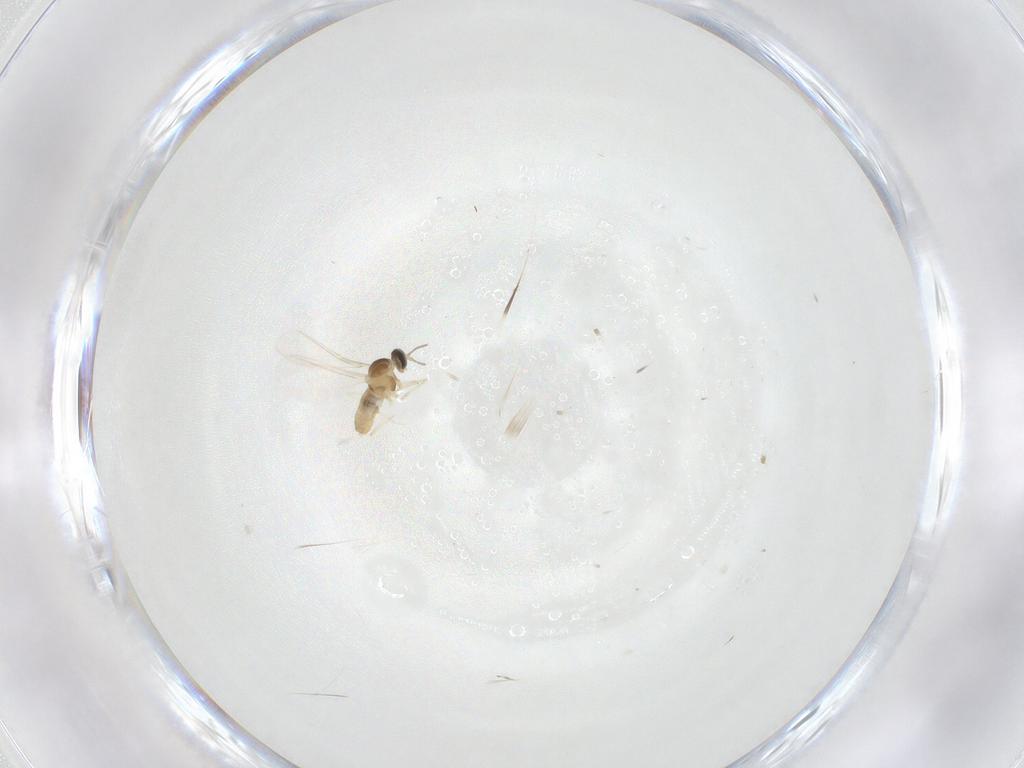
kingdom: Animalia
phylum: Arthropoda
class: Insecta
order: Diptera
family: Cecidomyiidae
